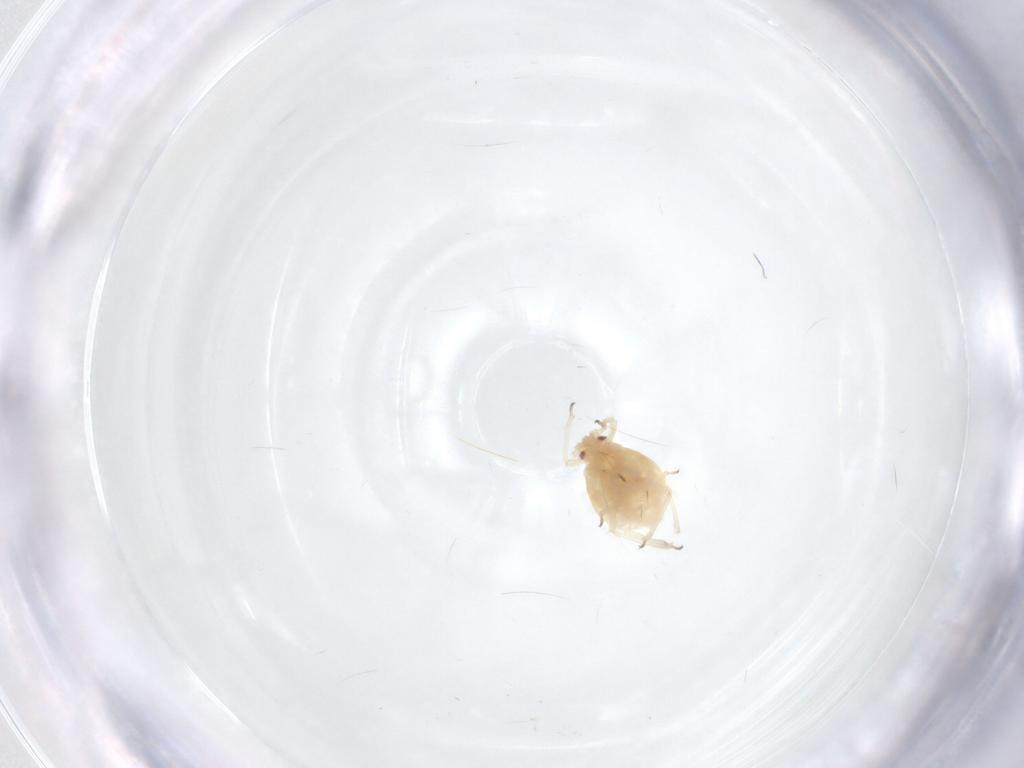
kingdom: Animalia
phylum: Arthropoda
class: Insecta
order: Hemiptera
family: Aphididae
